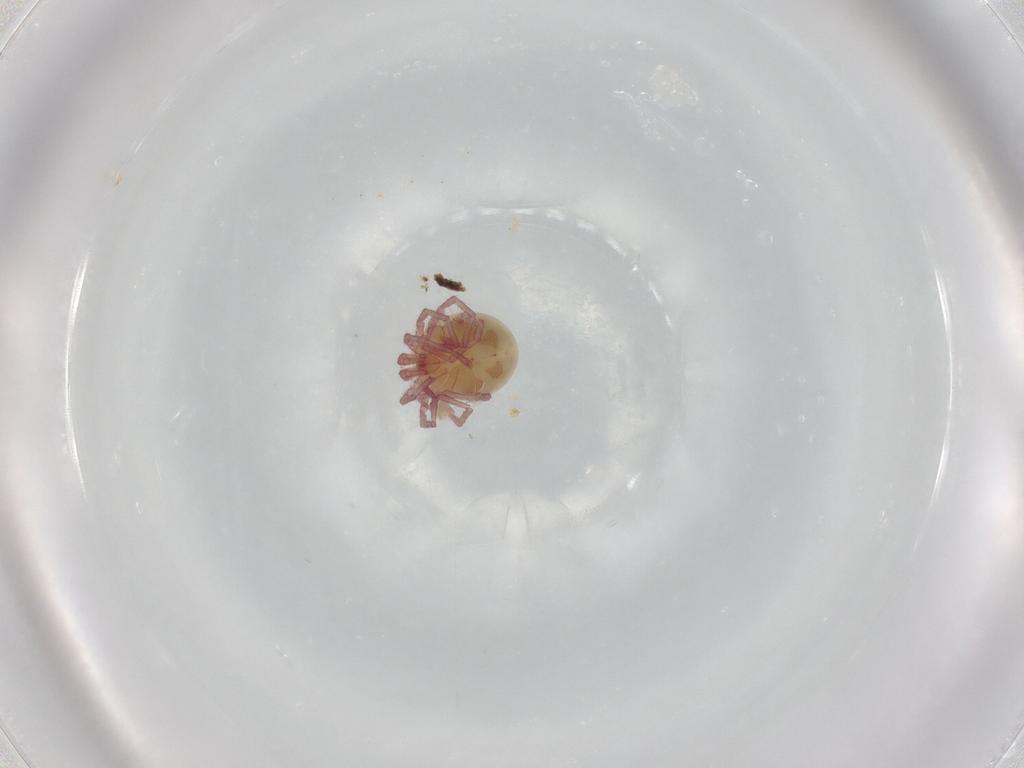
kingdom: Animalia
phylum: Arthropoda
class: Arachnida
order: Trombidiformes
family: Pionidae
